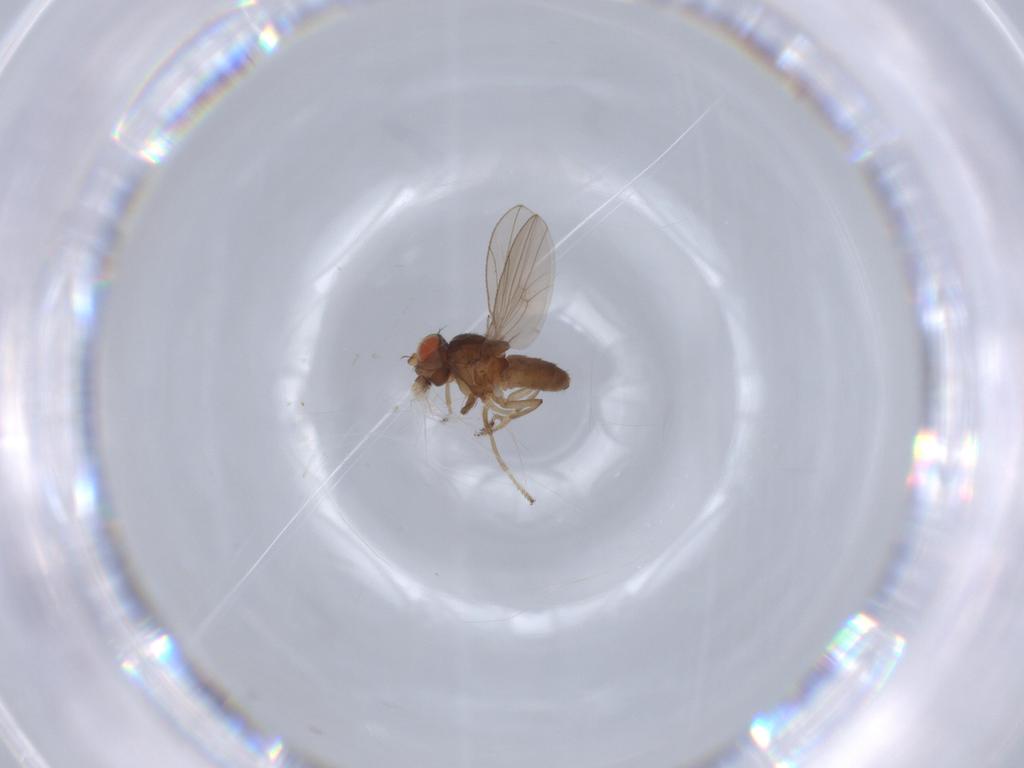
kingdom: Animalia
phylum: Arthropoda
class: Insecta
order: Diptera
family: Ephydridae
